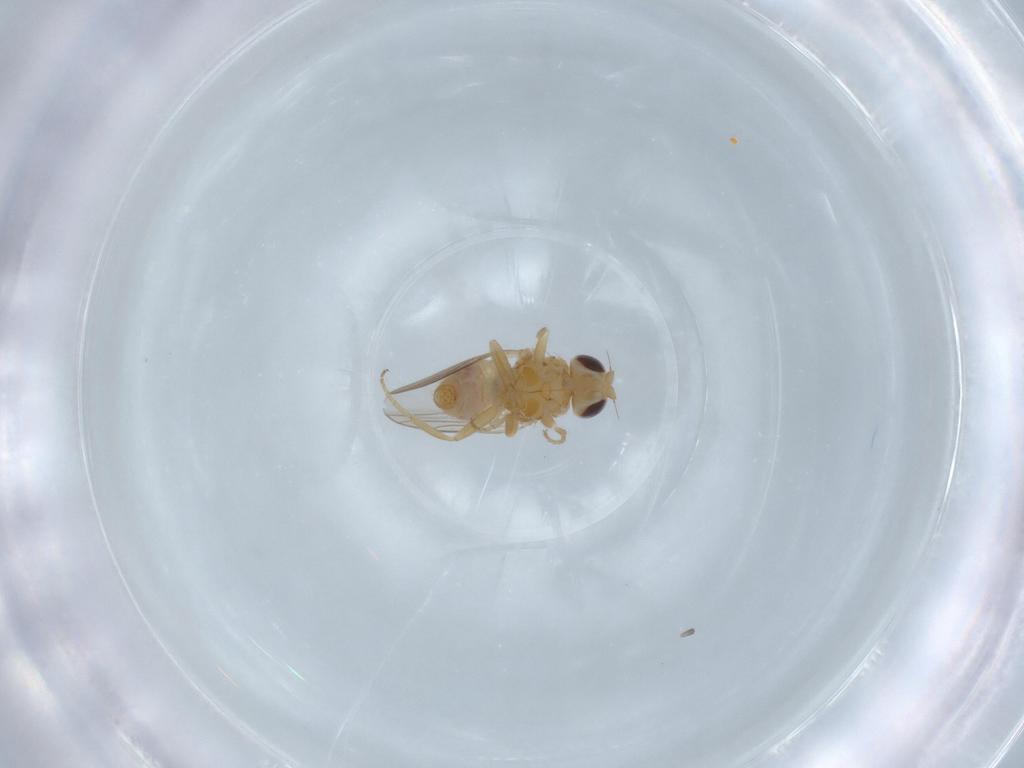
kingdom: Animalia
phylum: Arthropoda
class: Insecta
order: Diptera
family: Chloropidae
